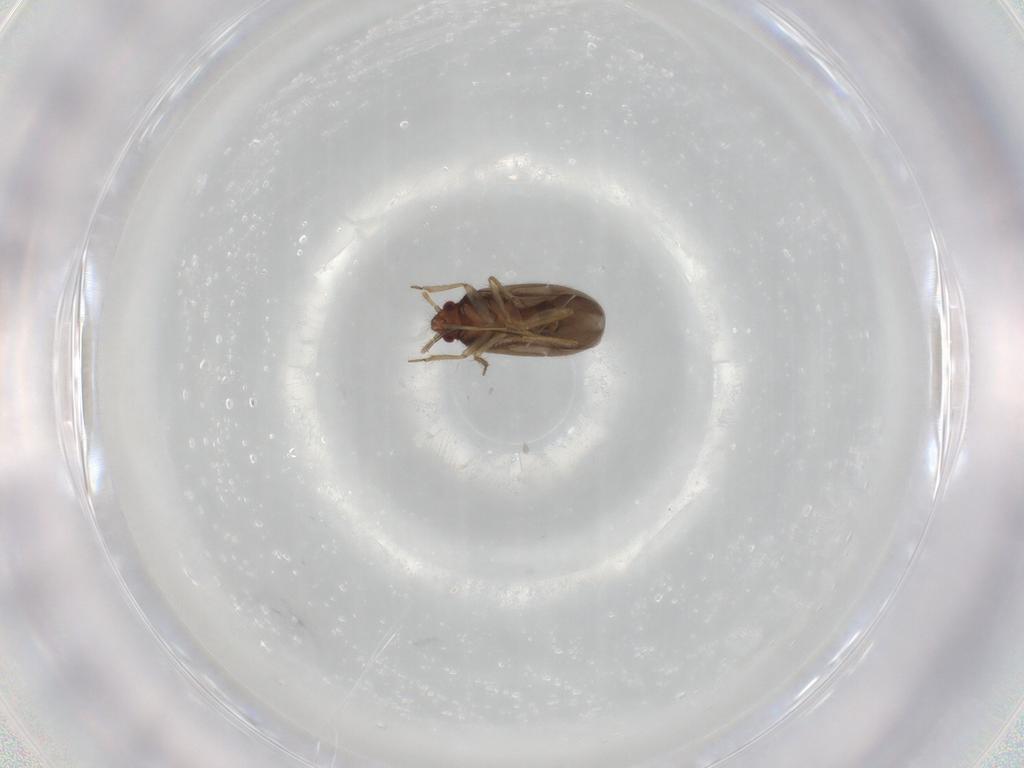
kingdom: Animalia
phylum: Arthropoda
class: Insecta
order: Hemiptera
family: Ceratocombidae
